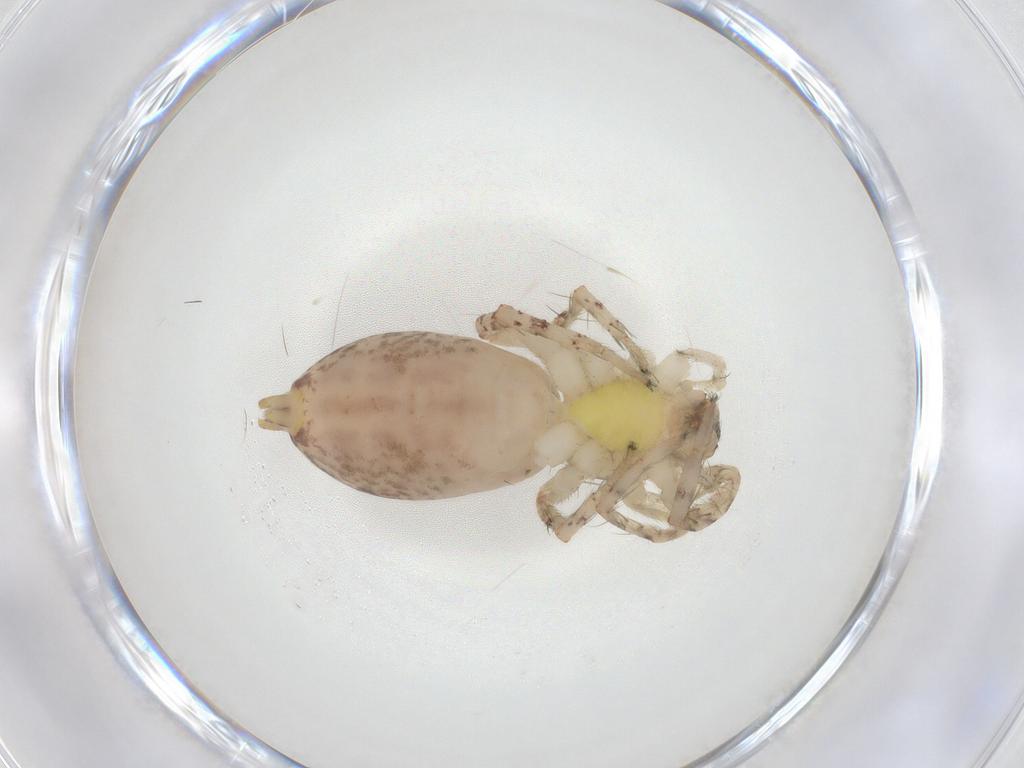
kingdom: Animalia
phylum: Arthropoda
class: Arachnida
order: Araneae
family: Anyphaenidae
